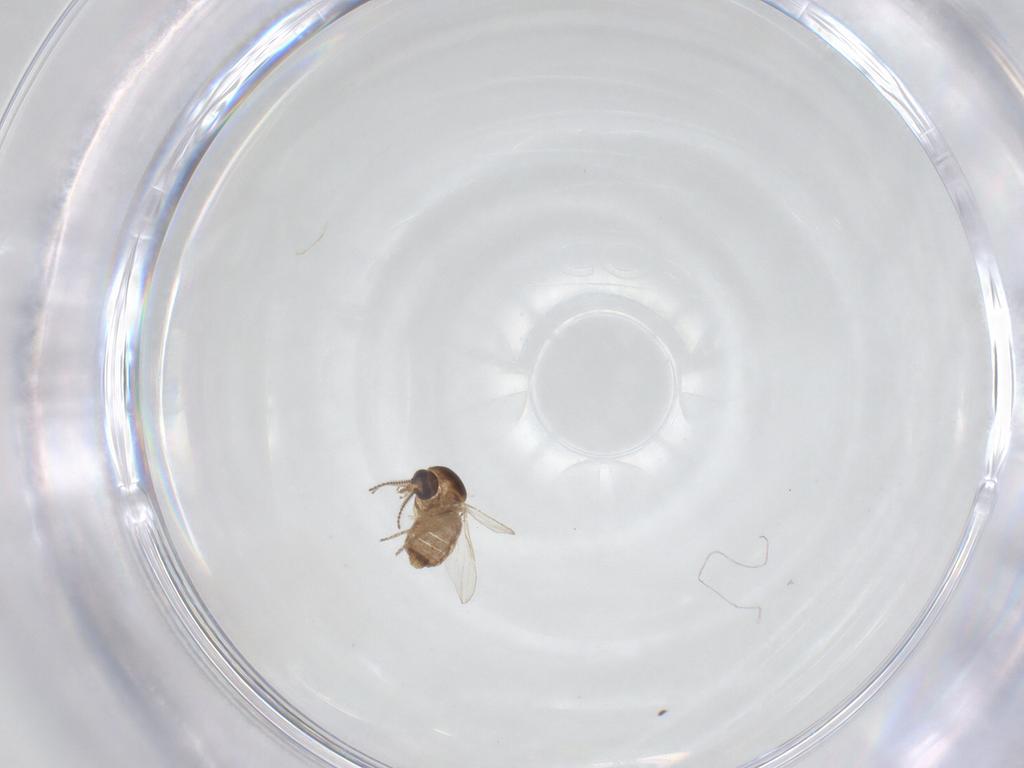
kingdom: Animalia
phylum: Arthropoda
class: Insecta
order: Diptera
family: Ceratopogonidae
